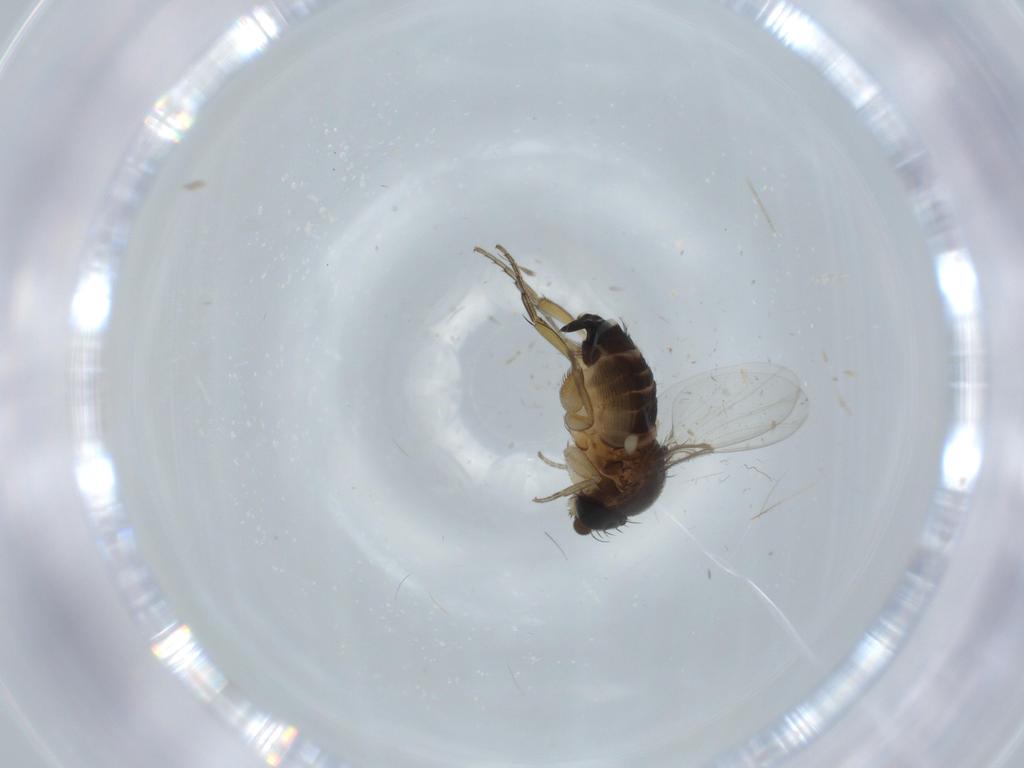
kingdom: Animalia
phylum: Arthropoda
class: Insecta
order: Diptera
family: Phoridae
